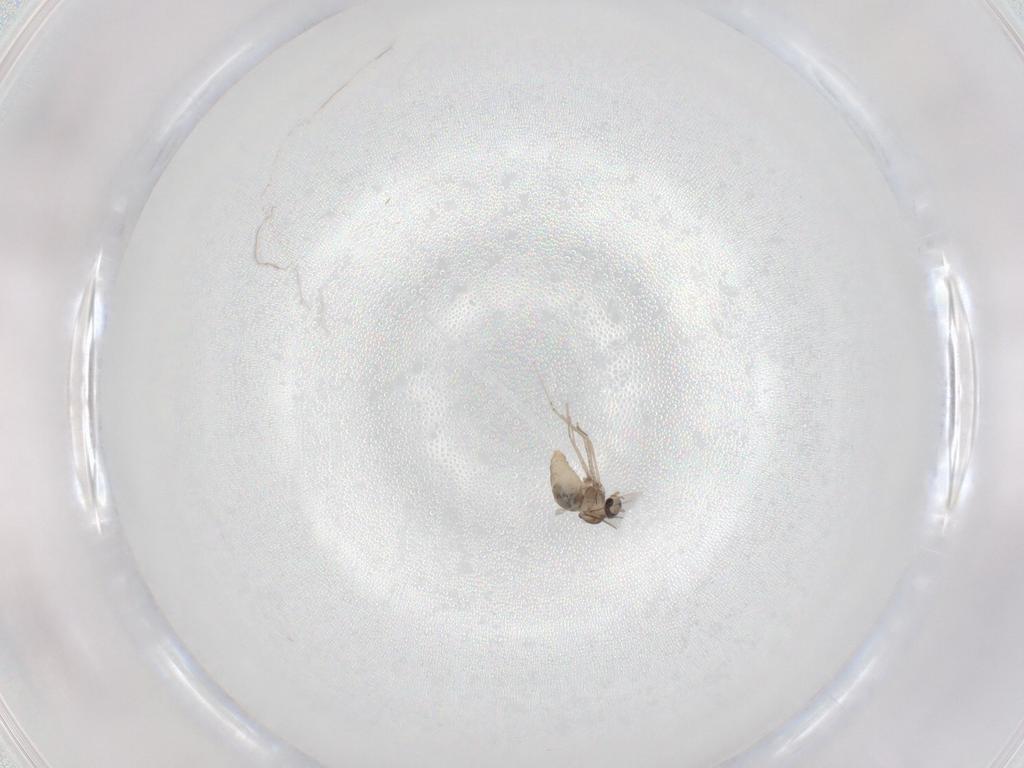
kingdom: Animalia
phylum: Arthropoda
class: Insecta
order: Diptera
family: Cecidomyiidae
